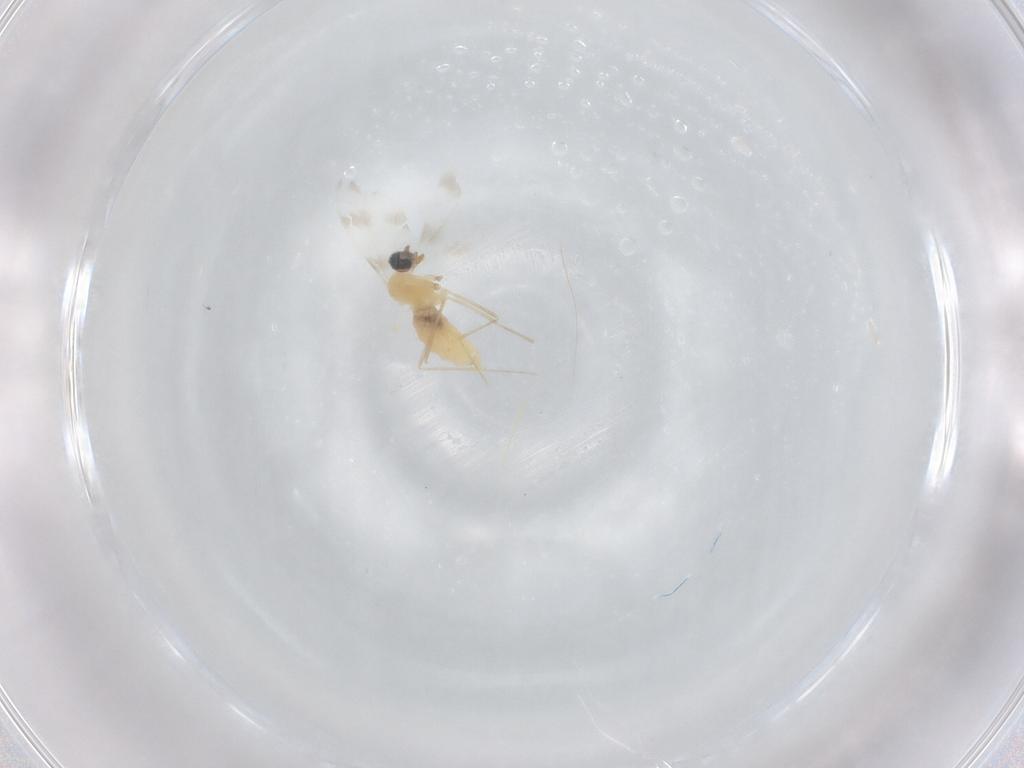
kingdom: Animalia
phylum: Arthropoda
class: Insecta
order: Diptera
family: Cecidomyiidae
